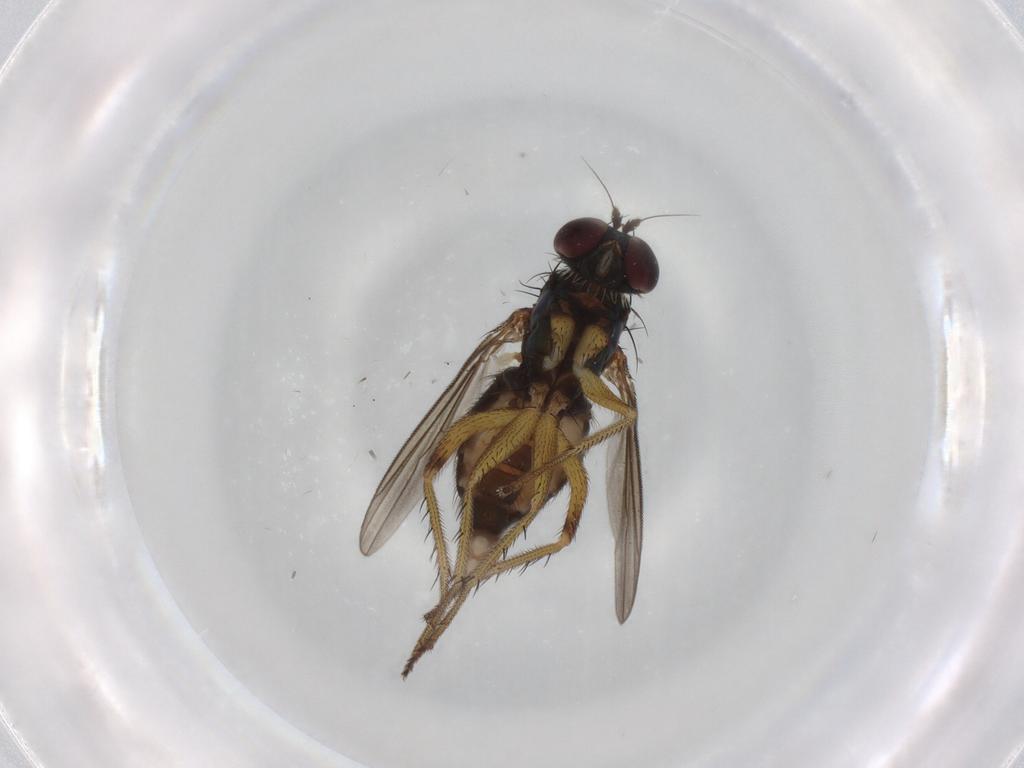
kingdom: Animalia
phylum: Arthropoda
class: Insecta
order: Diptera
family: Dolichopodidae
